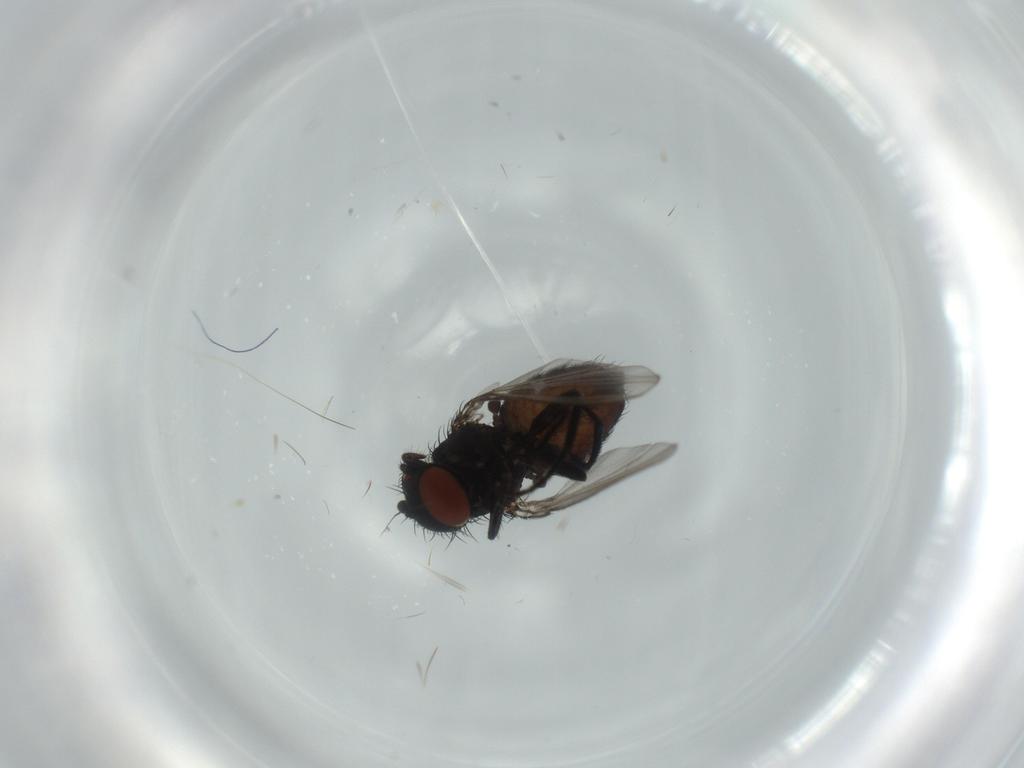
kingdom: Animalia
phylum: Arthropoda
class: Insecta
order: Diptera
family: Milichiidae
